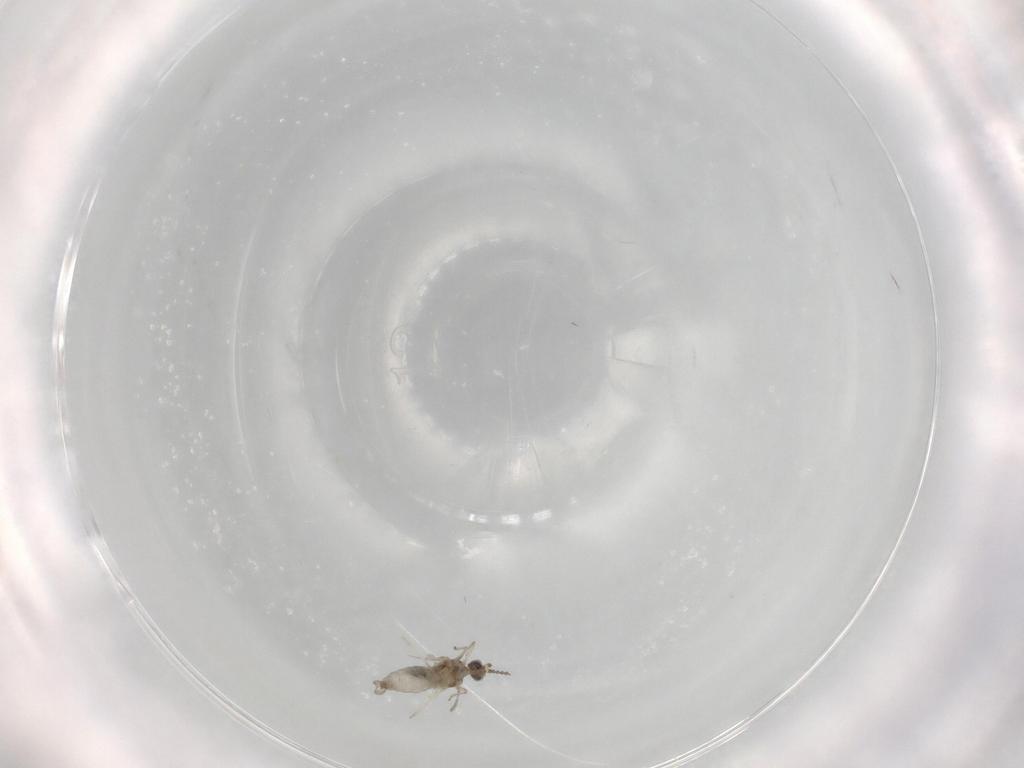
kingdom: Animalia
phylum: Arthropoda
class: Insecta
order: Diptera
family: Cecidomyiidae
